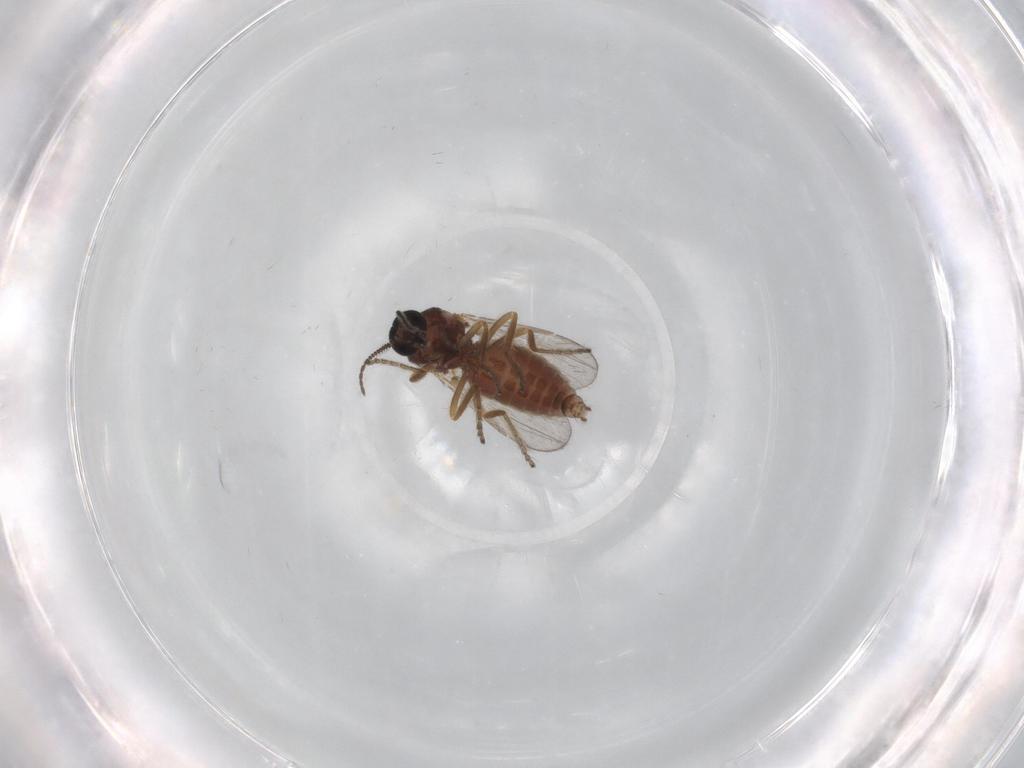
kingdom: Animalia
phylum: Arthropoda
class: Insecta
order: Diptera
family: Ceratopogonidae
